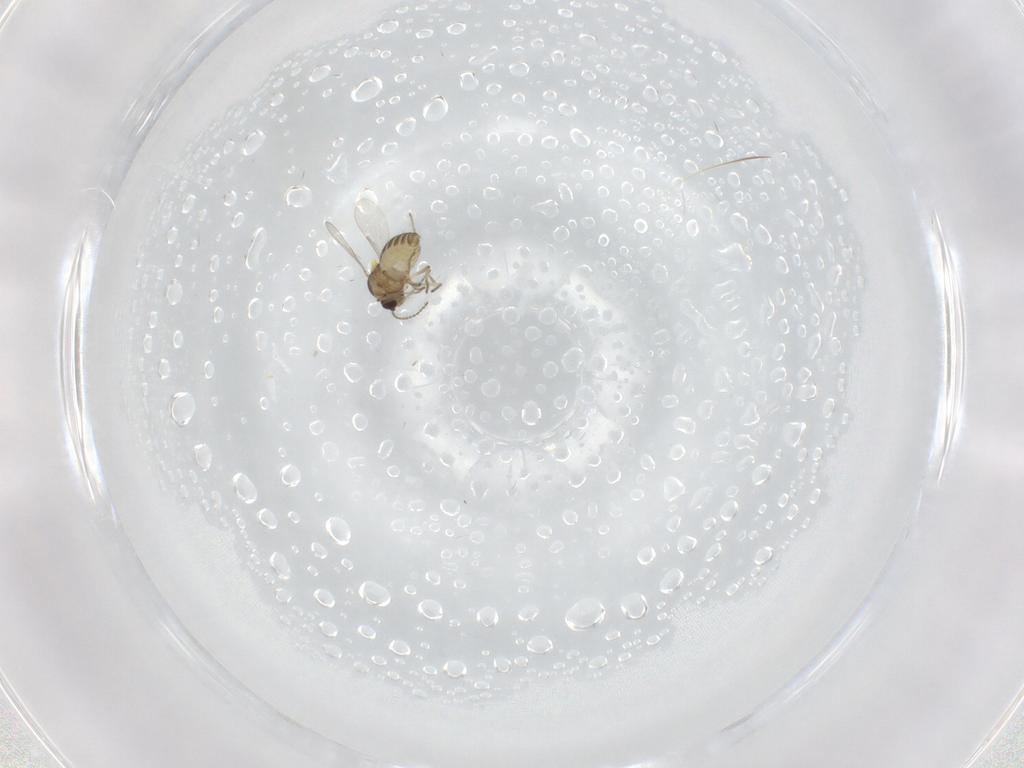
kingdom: Animalia
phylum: Arthropoda
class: Insecta
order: Diptera
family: Ceratopogonidae
